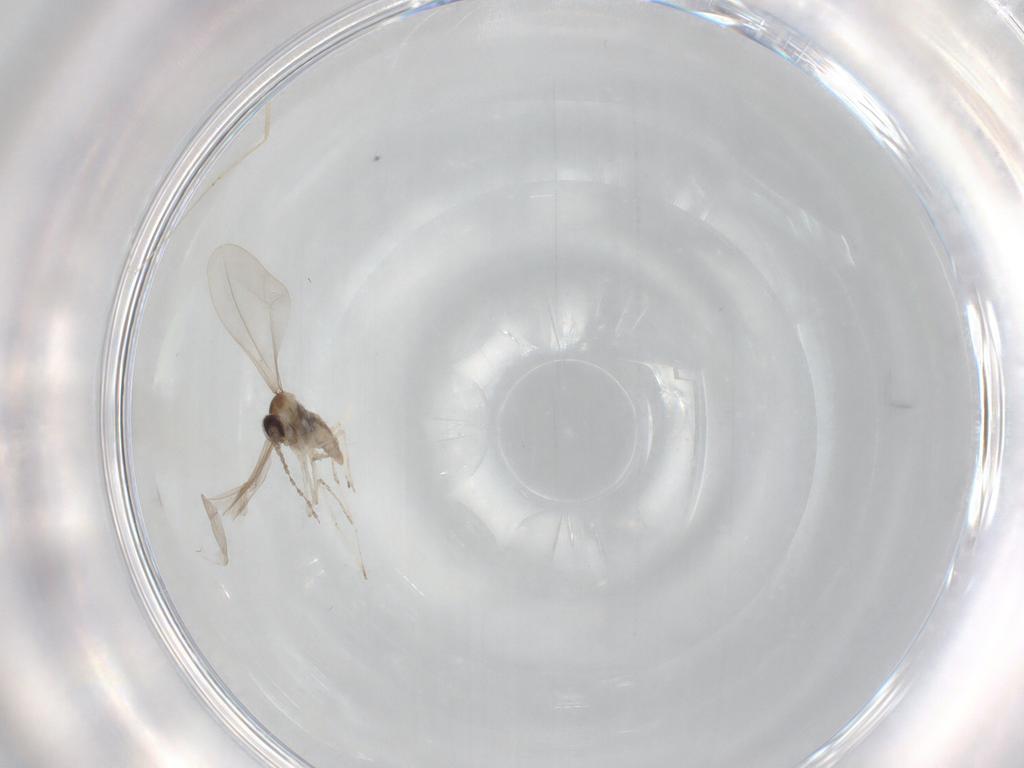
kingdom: Animalia
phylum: Arthropoda
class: Insecta
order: Diptera
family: Cecidomyiidae
